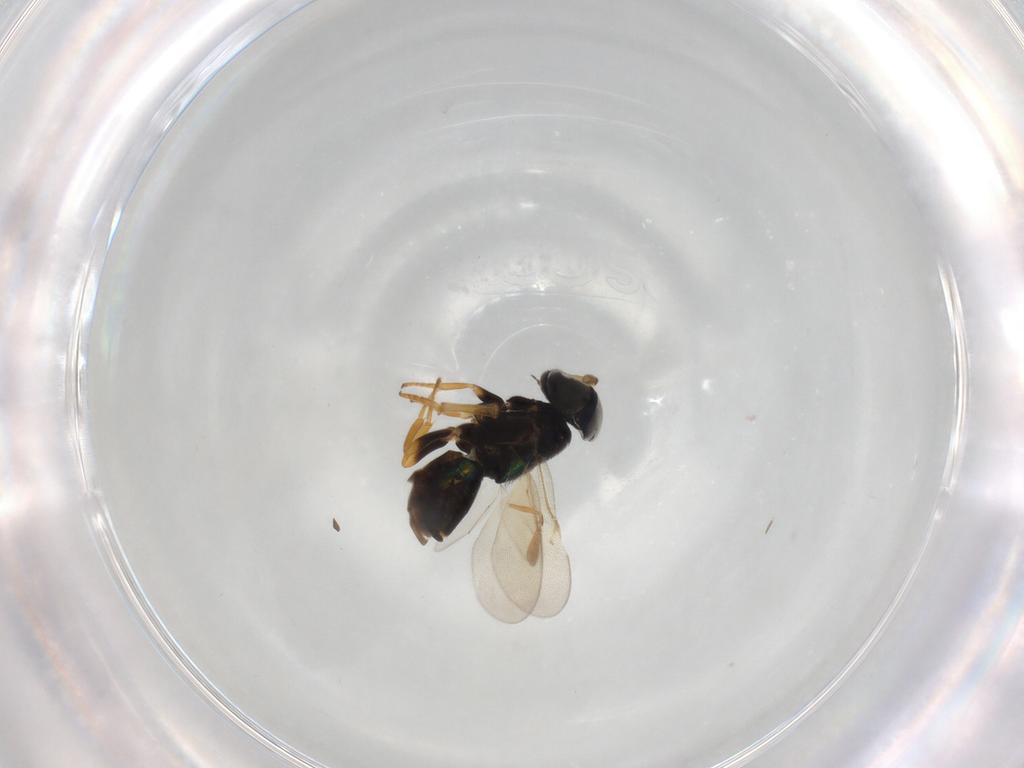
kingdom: Animalia
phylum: Arthropoda
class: Insecta
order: Hymenoptera
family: Encyrtidae
